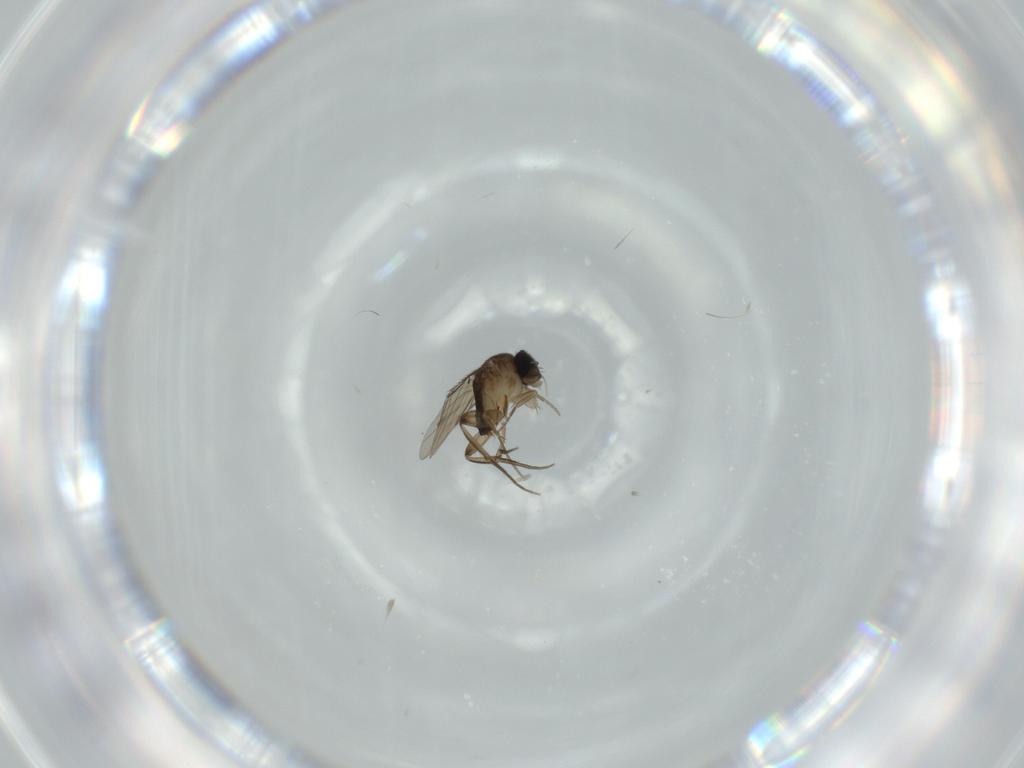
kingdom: Animalia
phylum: Arthropoda
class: Insecta
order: Diptera
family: Phoridae
